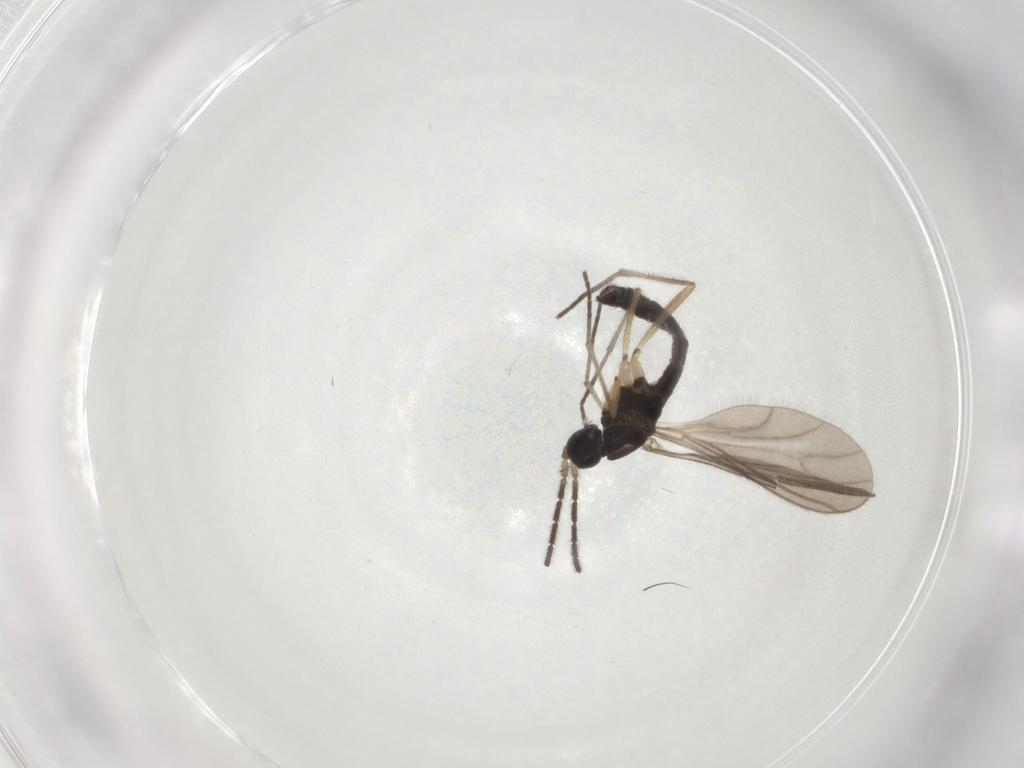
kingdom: Animalia
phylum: Arthropoda
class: Insecta
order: Diptera
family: Sciaridae
